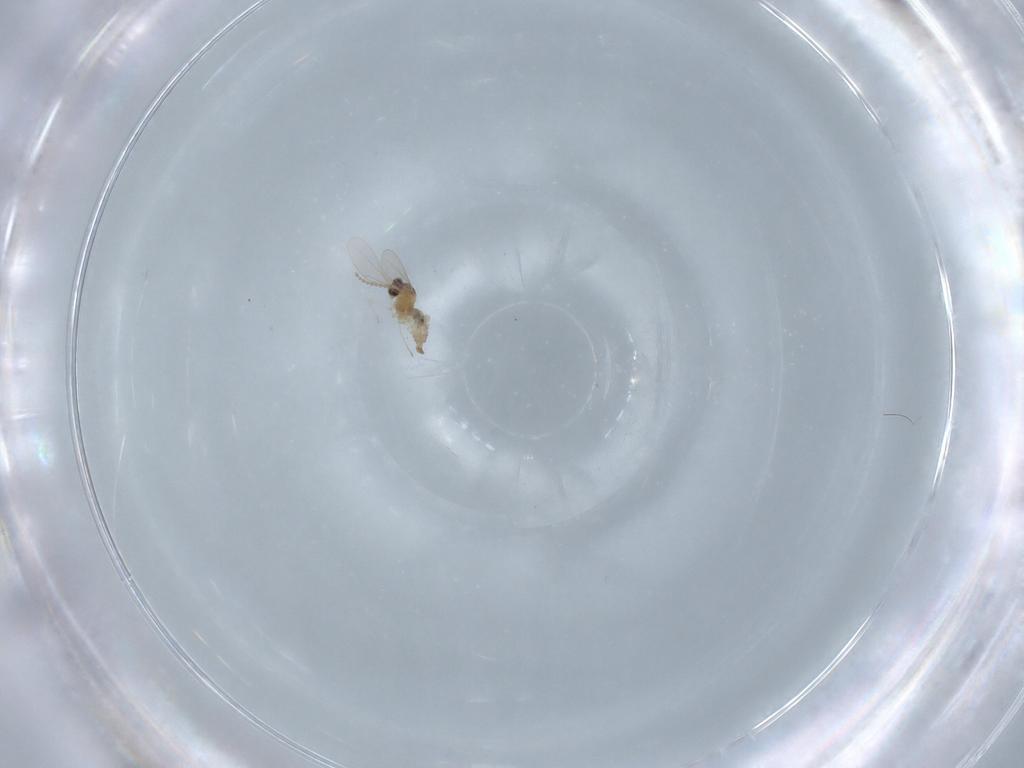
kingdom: Animalia
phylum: Arthropoda
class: Insecta
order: Diptera
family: Cecidomyiidae
